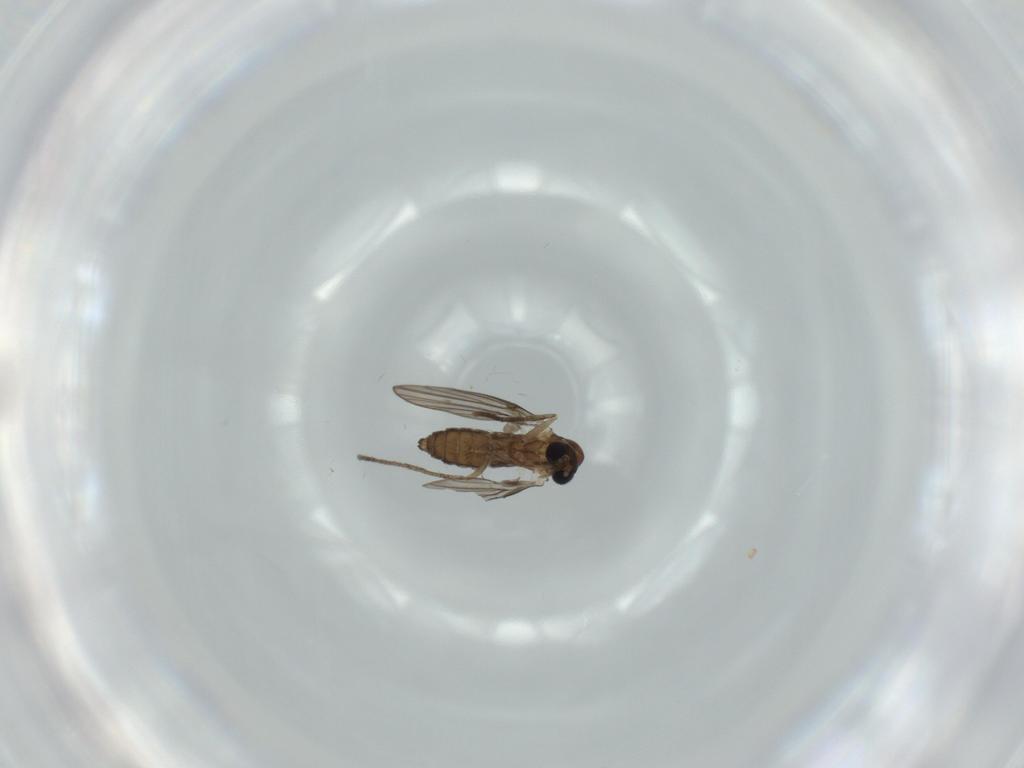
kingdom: Animalia
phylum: Arthropoda
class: Insecta
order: Diptera
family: Psychodidae
